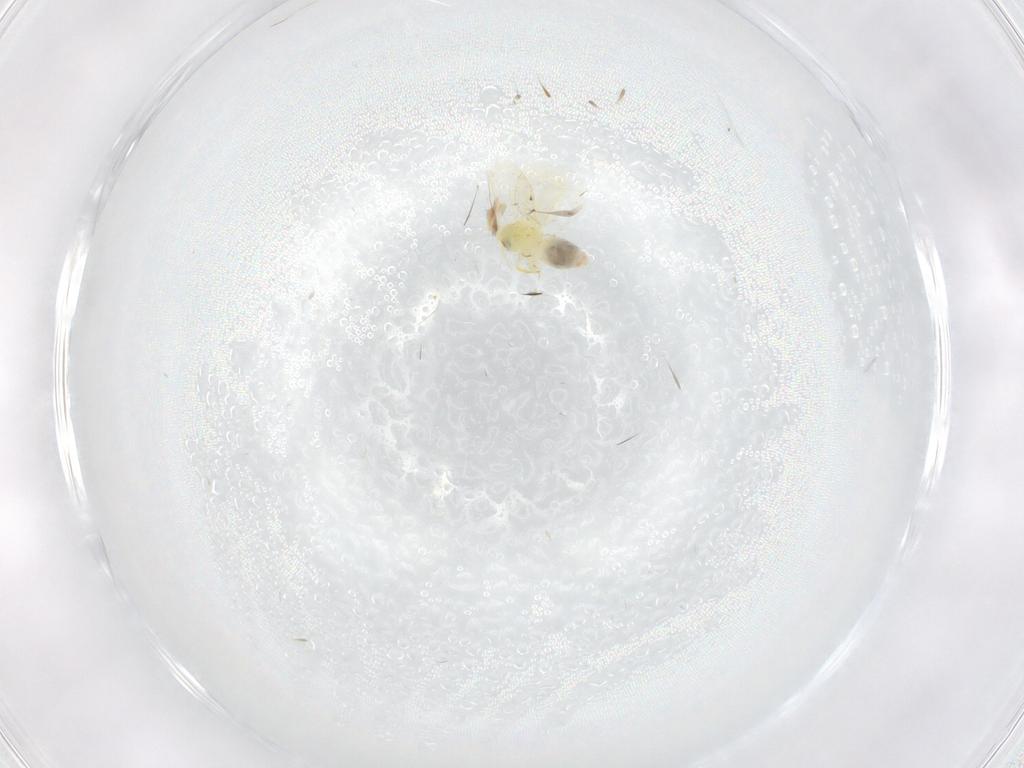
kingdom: Animalia
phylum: Arthropoda
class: Insecta
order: Hemiptera
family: Aleyrodidae
